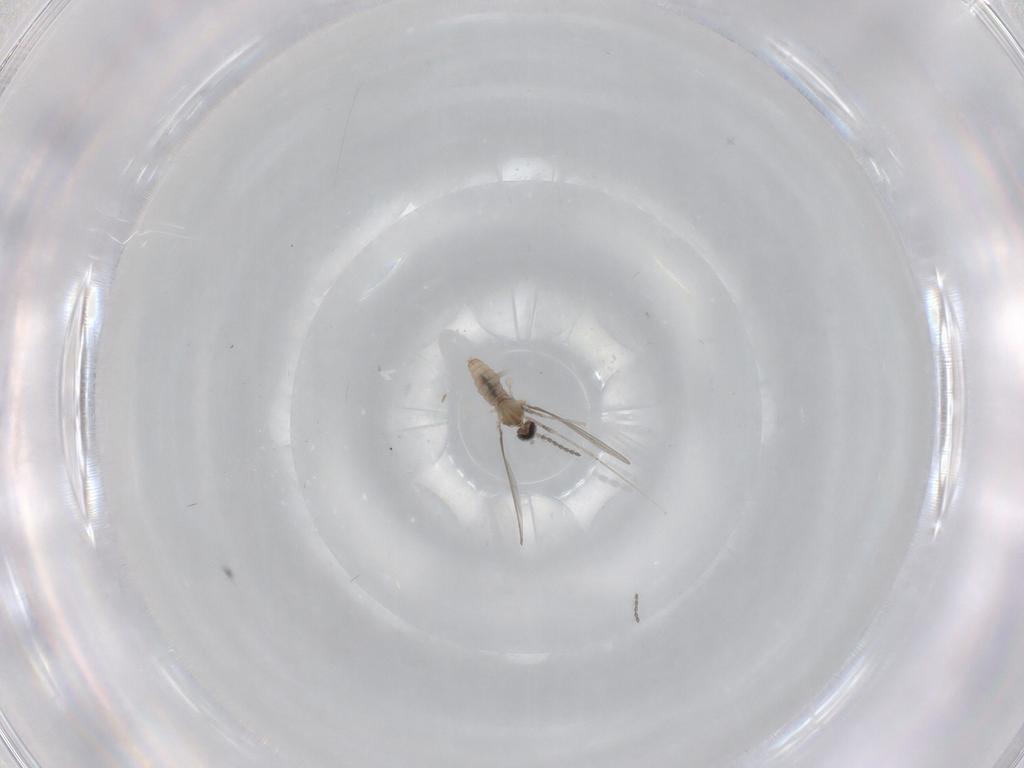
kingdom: Animalia
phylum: Arthropoda
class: Insecta
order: Diptera
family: Cecidomyiidae
